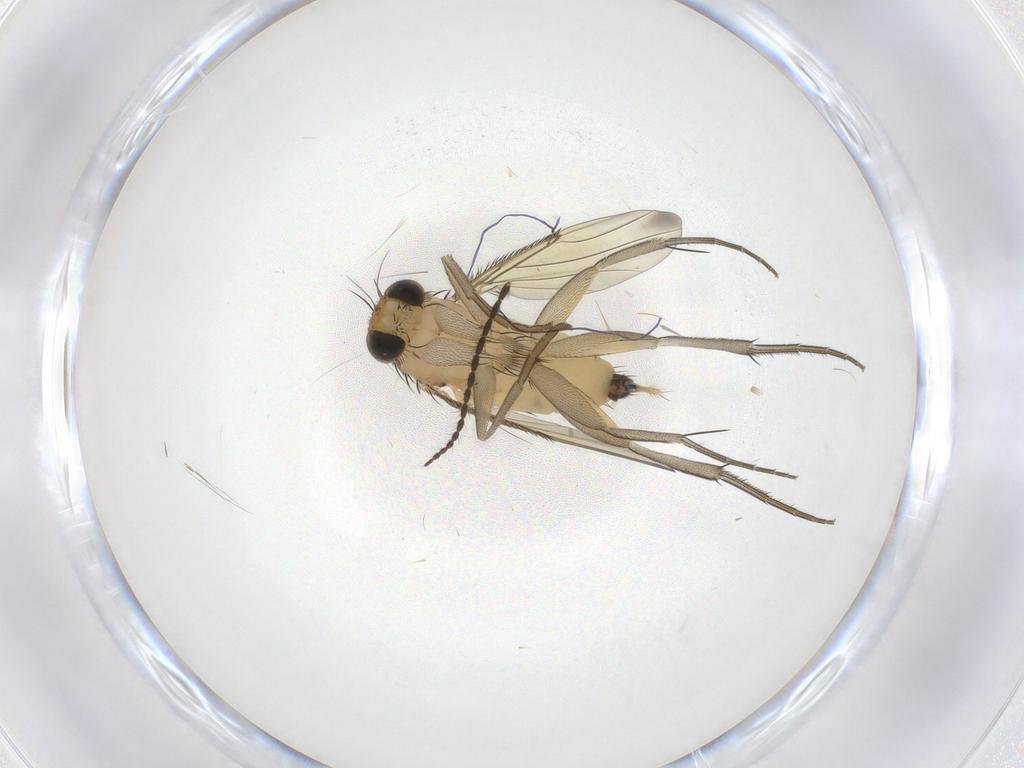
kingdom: Animalia
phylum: Arthropoda
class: Insecta
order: Diptera
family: Phoridae
